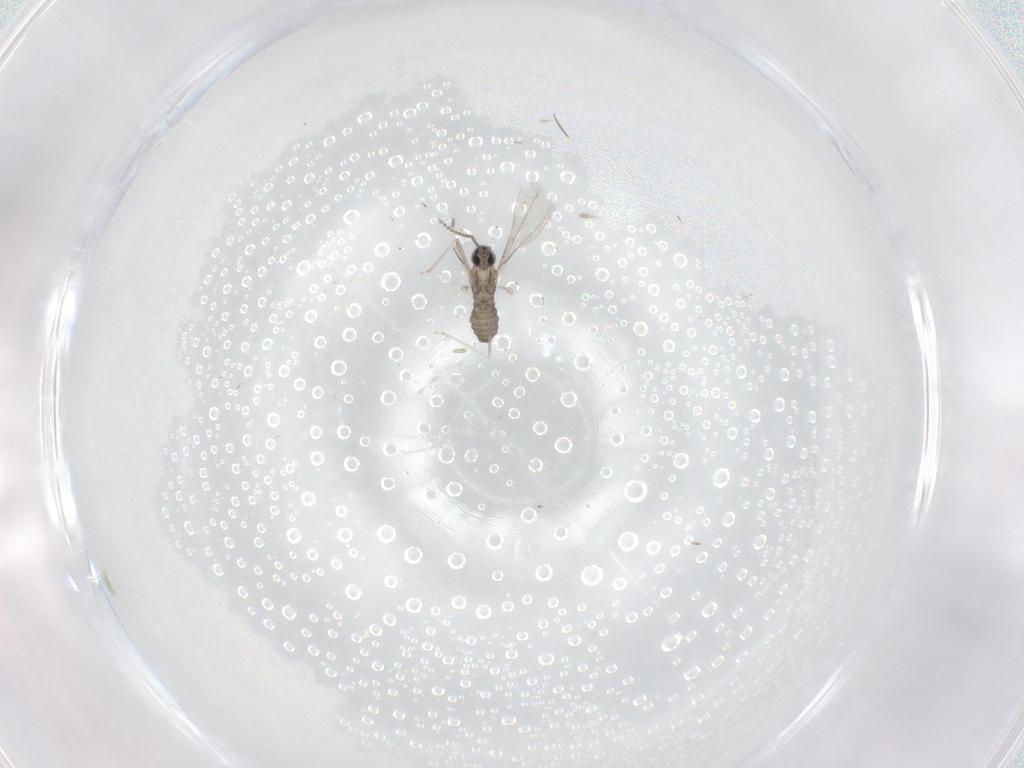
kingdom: Animalia
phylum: Arthropoda
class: Insecta
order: Diptera
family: Cecidomyiidae
